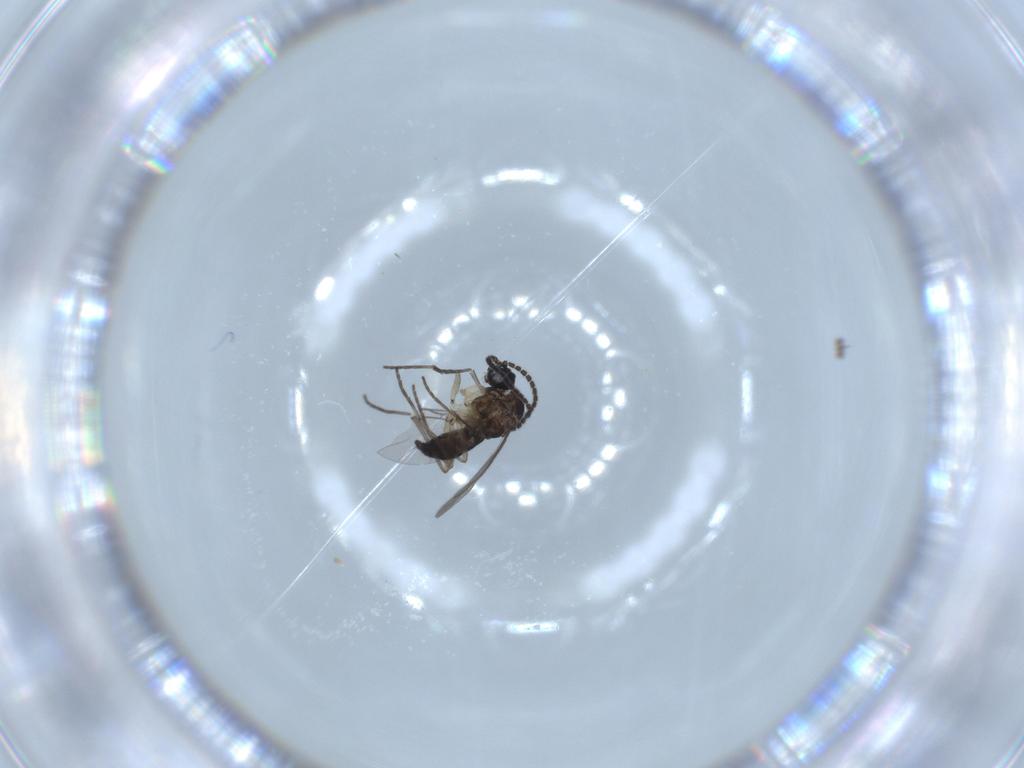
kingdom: Animalia
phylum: Arthropoda
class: Insecta
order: Diptera
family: Sciaridae
